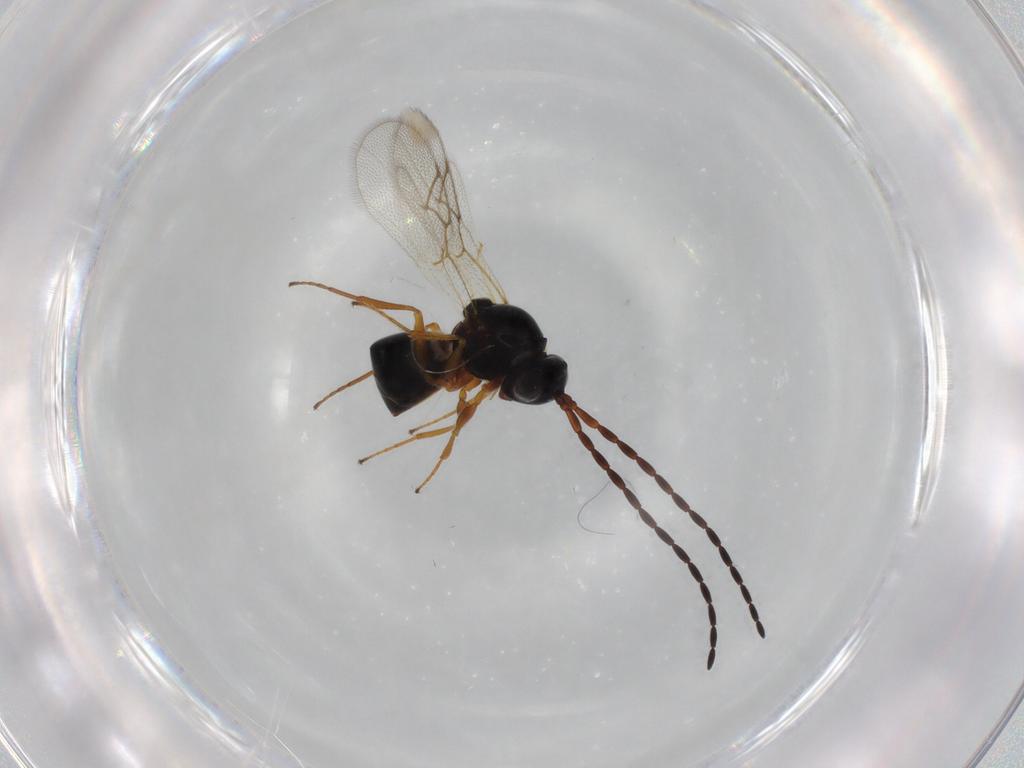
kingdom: Animalia
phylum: Arthropoda
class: Insecta
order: Hymenoptera
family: Figitidae
